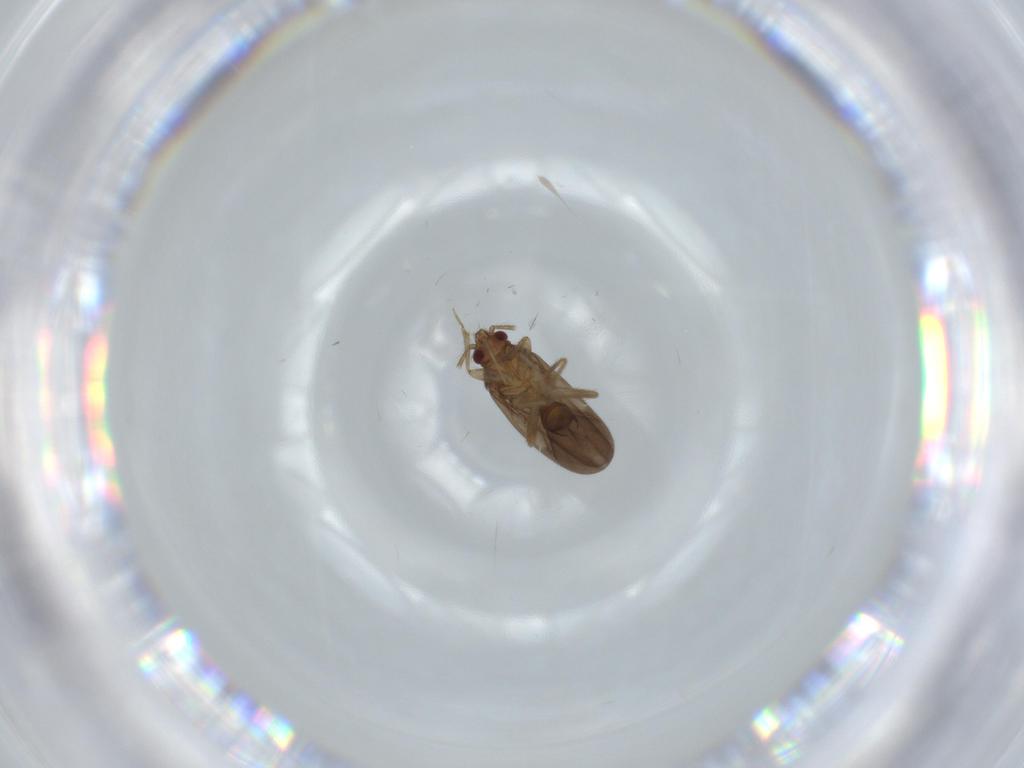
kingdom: Animalia
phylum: Arthropoda
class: Insecta
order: Hemiptera
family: Ceratocombidae
